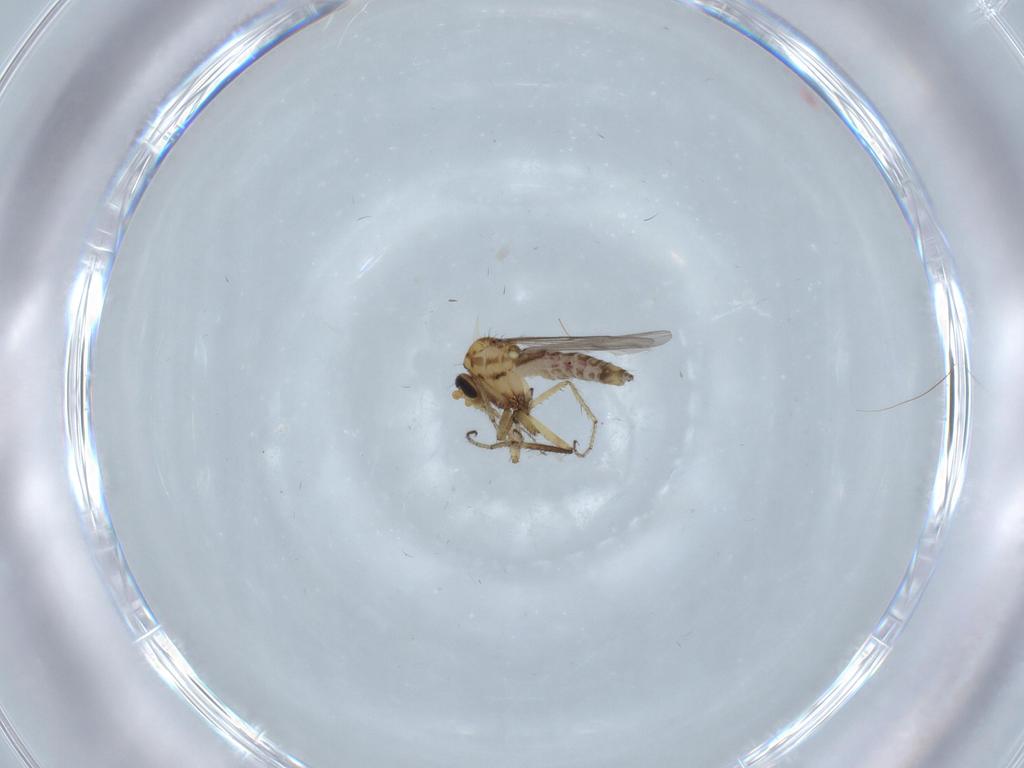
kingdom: Animalia
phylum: Arthropoda
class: Insecta
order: Diptera
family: Ceratopogonidae
